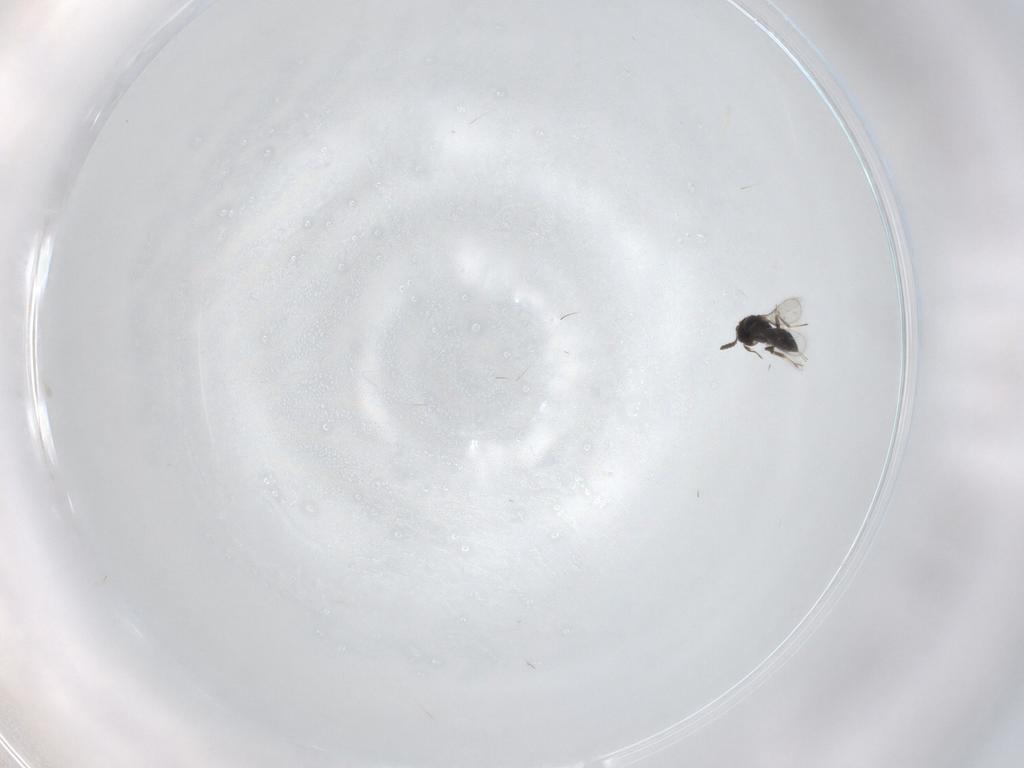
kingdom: Animalia
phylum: Arthropoda
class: Insecta
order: Hymenoptera
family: Scelionidae
